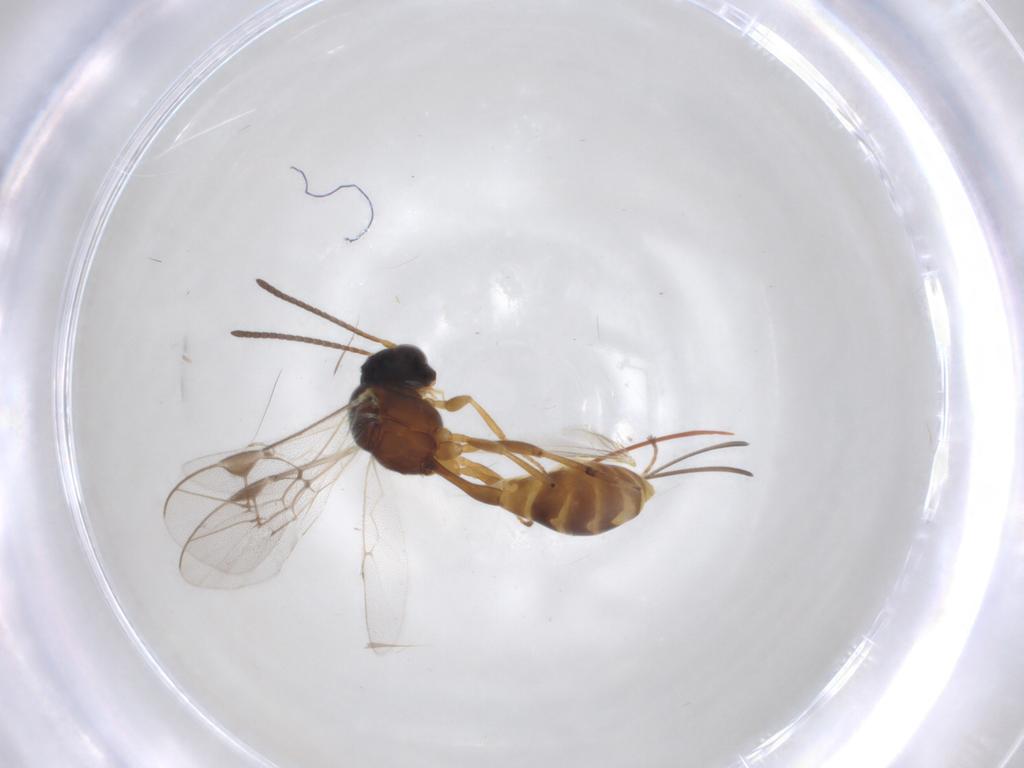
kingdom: Animalia
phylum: Arthropoda
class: Insecta
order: Hymenoptera
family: Ichneumonidae
